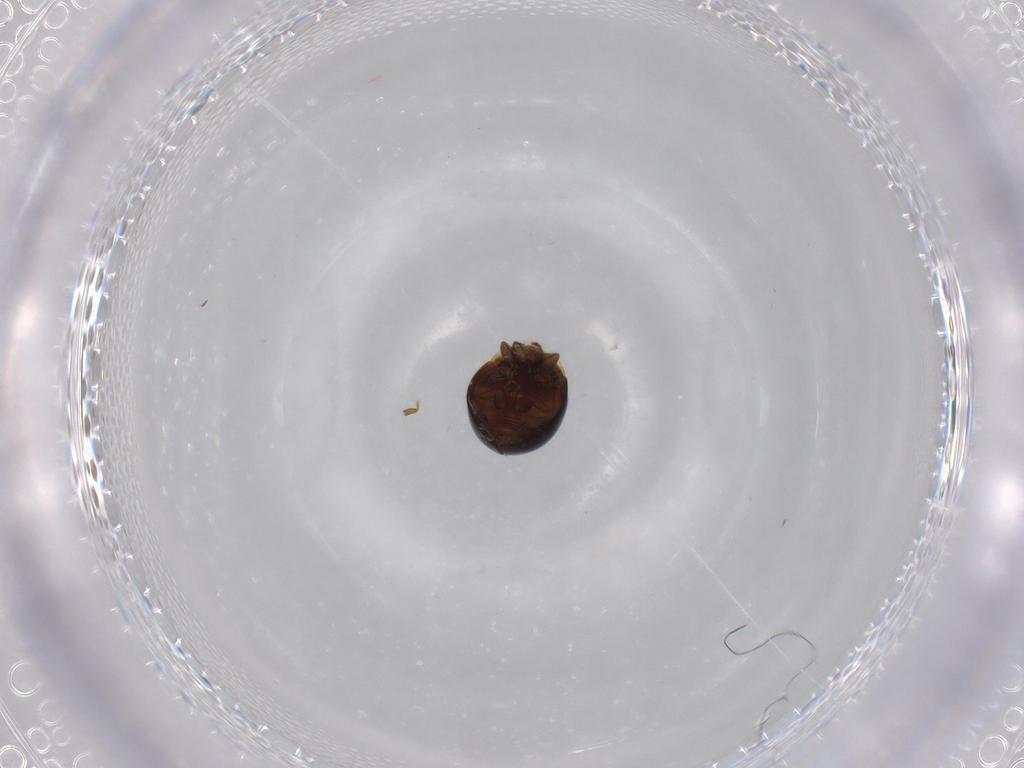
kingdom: Animalia
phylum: Arthropoda
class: Insecta
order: Coleoptera
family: Corylophidae
